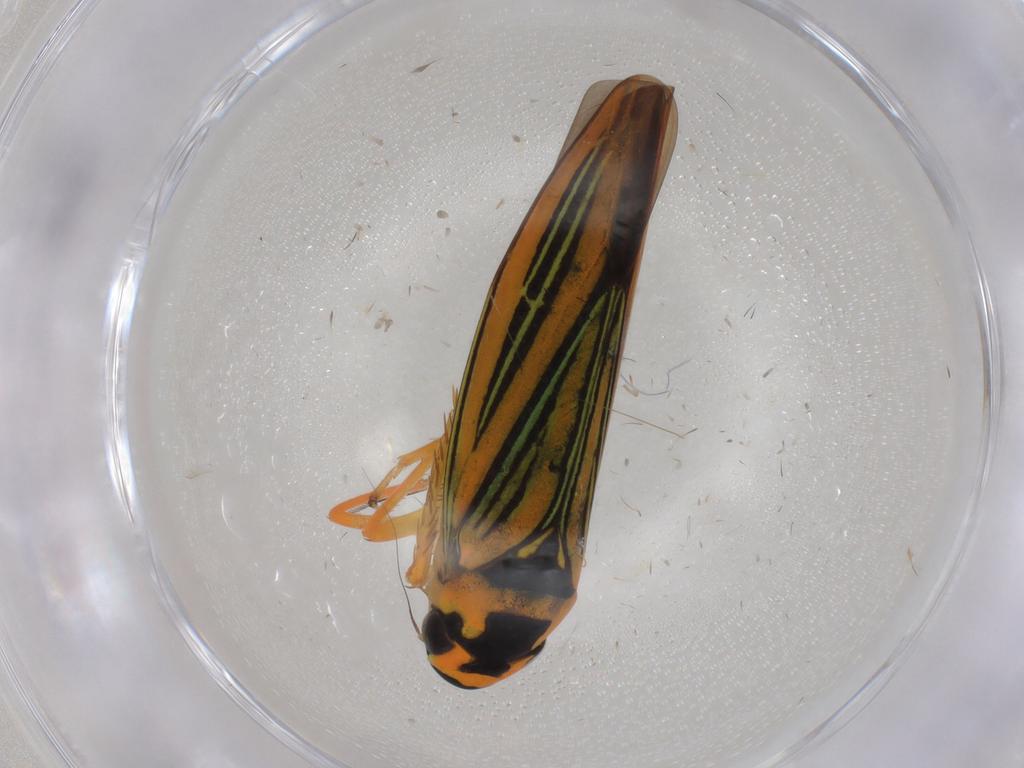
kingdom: Animalia
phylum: Arthropoda
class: Insecta
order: Hemiptera
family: Cicadellidae
